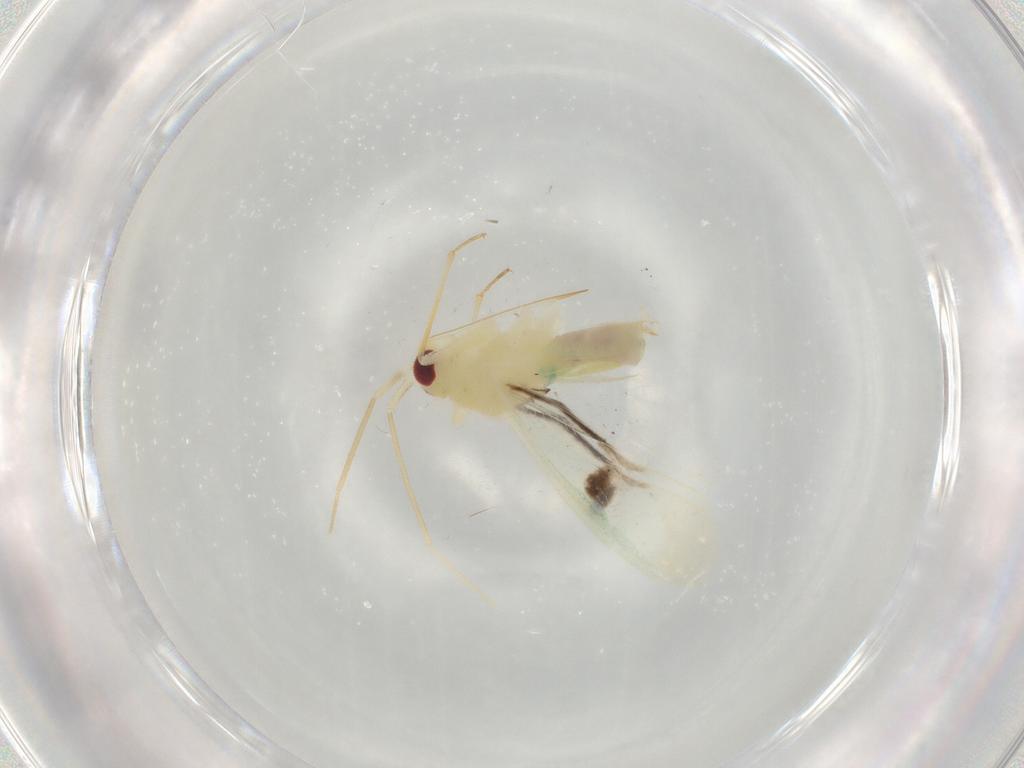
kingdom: Animalia
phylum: Arthropoda
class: Insecta
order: Hemiptera
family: Miridae
